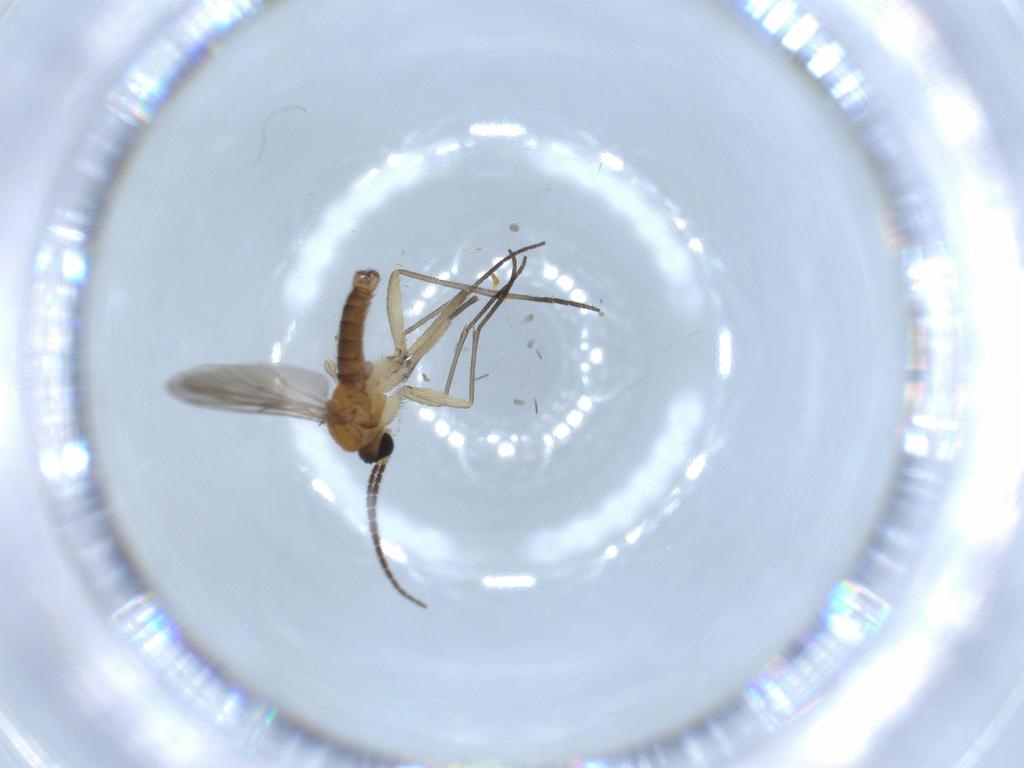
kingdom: Animalia
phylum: Arthropoda
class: Insecta
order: Diptera
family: Sciaridae
